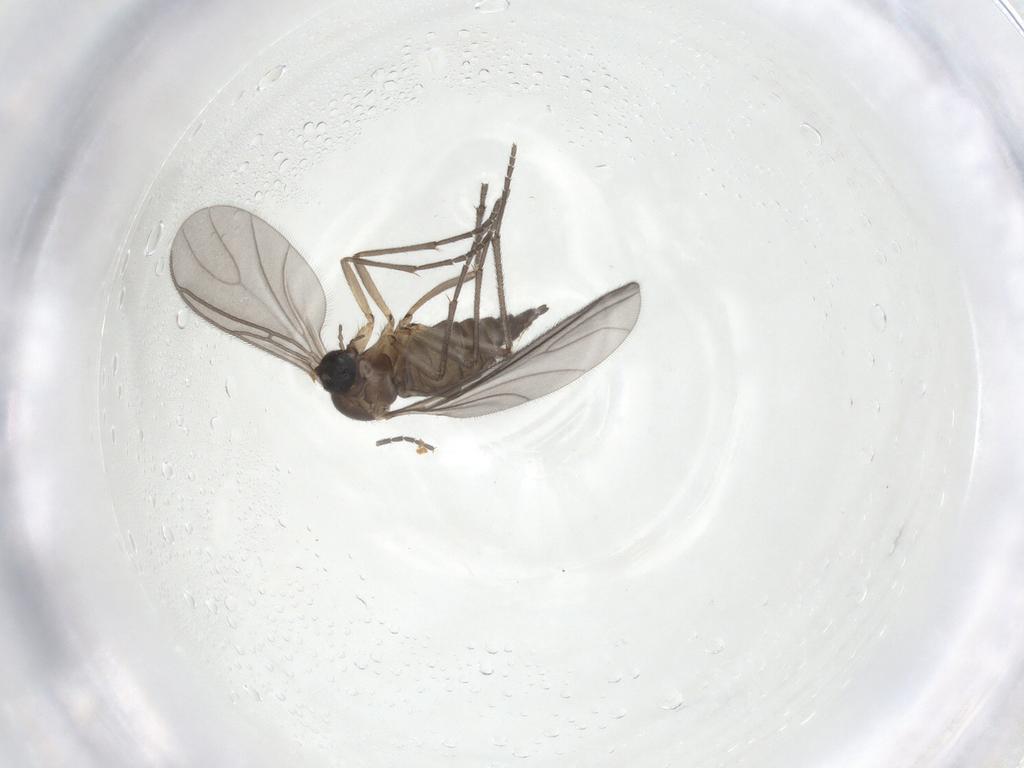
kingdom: Animalia
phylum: Arthropoda
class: Insecta
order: Diptera
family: Sciaridae
